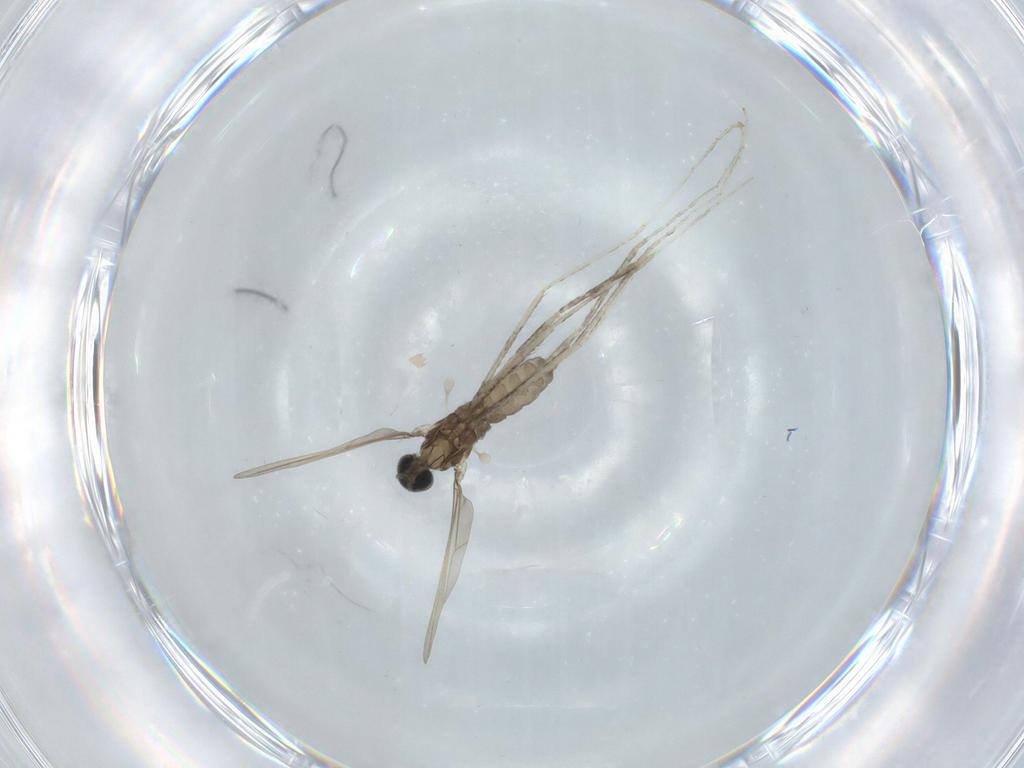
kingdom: Animalia
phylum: Arthropoda
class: Insecta
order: Diptera
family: Cecidomyiidae
